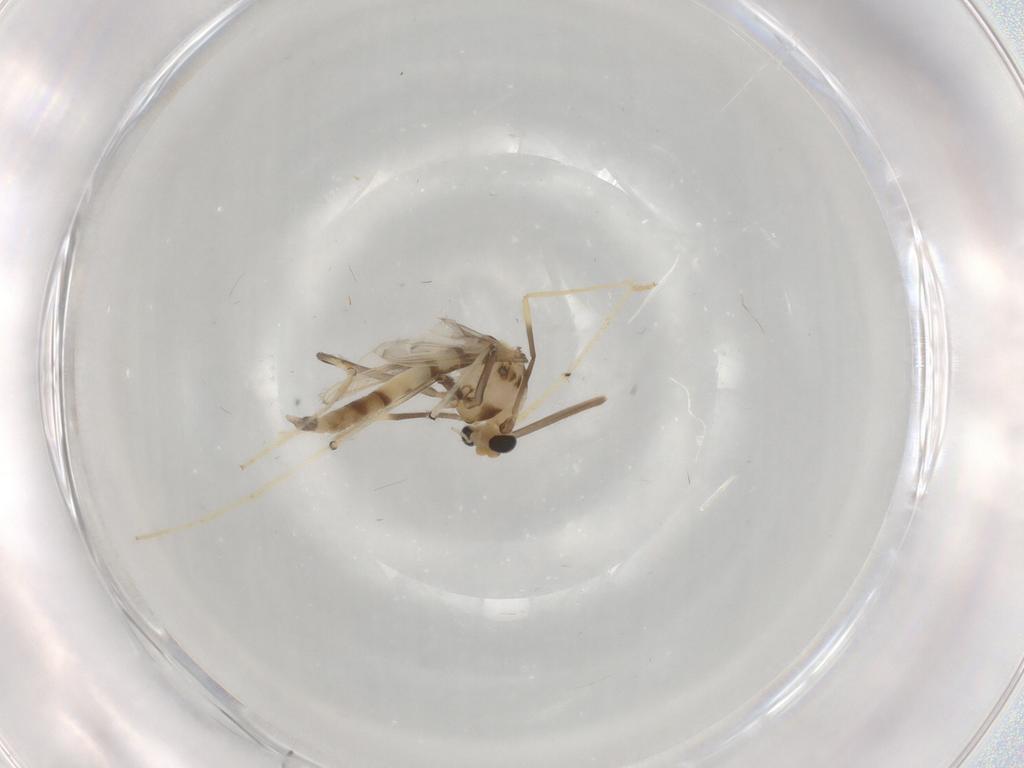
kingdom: Animalia
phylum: Arthropoda
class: Insecta
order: Diptera
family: Chironomidae
